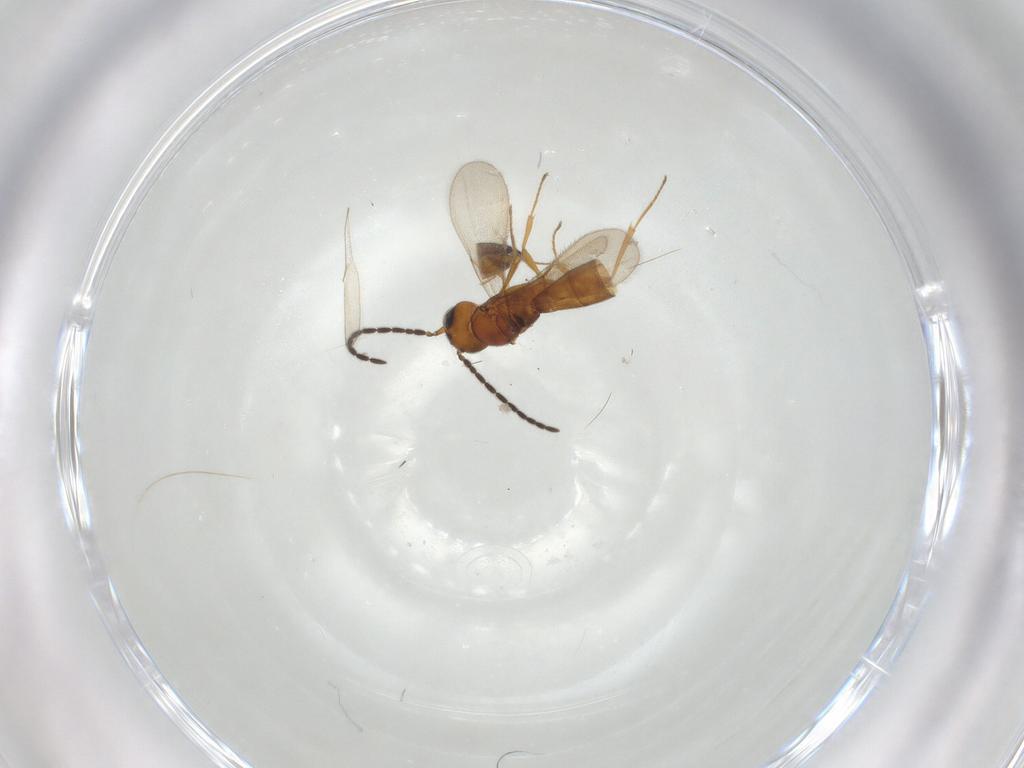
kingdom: Animalia
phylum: Arthropoda
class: Insecta
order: Hymenoptera
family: Scelionidae
